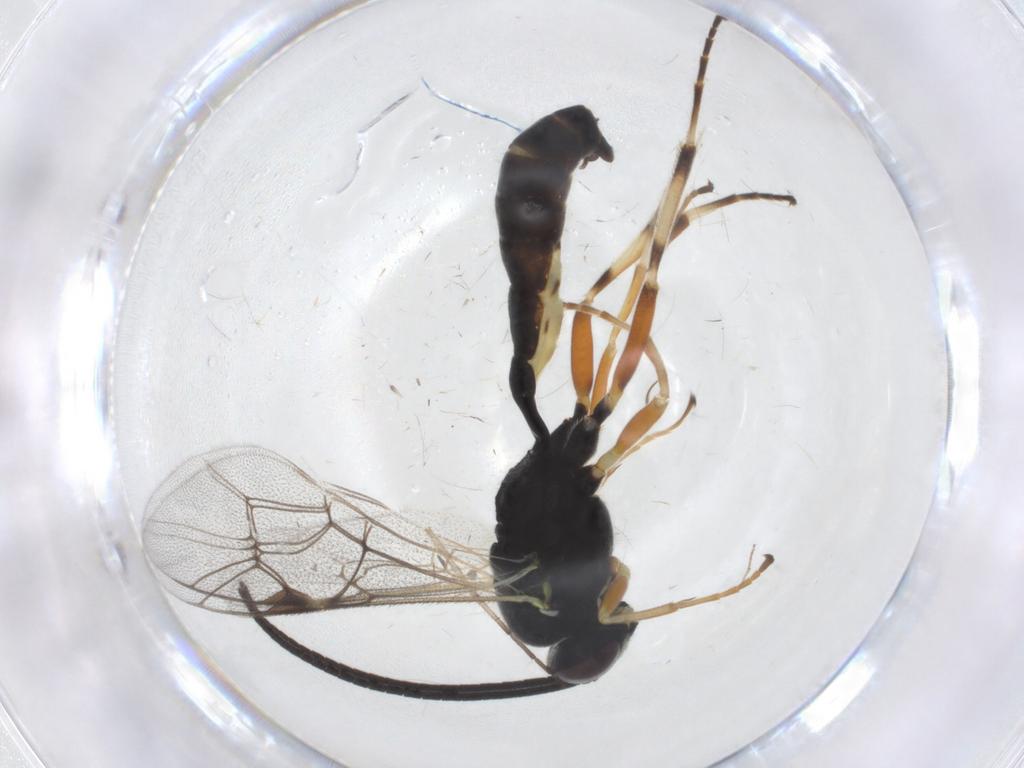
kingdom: Animalia
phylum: Arthropoda
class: Insecta
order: Hymenoptera
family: Ichneumonidae
